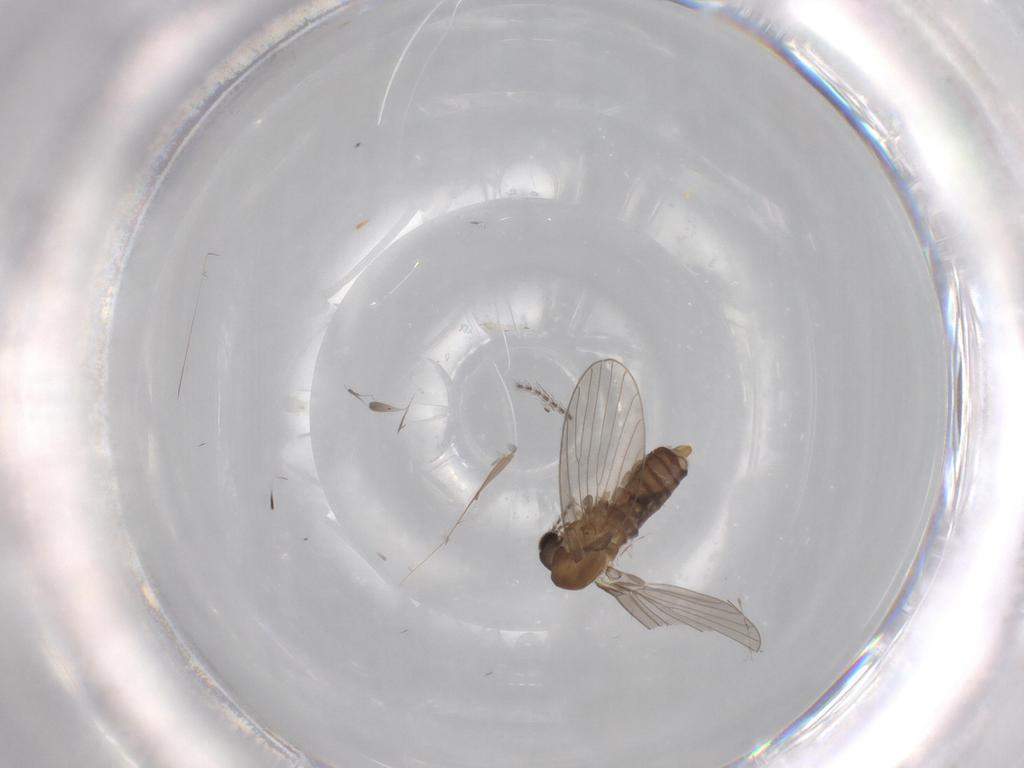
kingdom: Animalia
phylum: Arthropoda
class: Insecta
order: Diptera
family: Psychodidae
